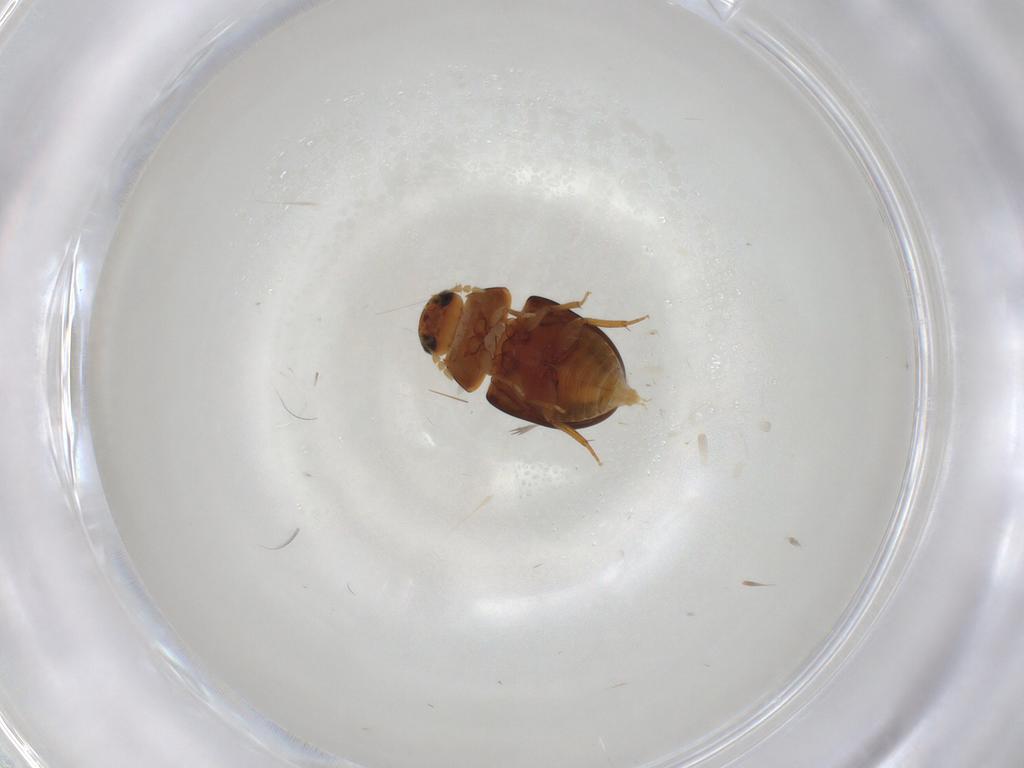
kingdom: Animalia
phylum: Arthropoda
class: Insecta
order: Coleoptera
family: Phalacridae
